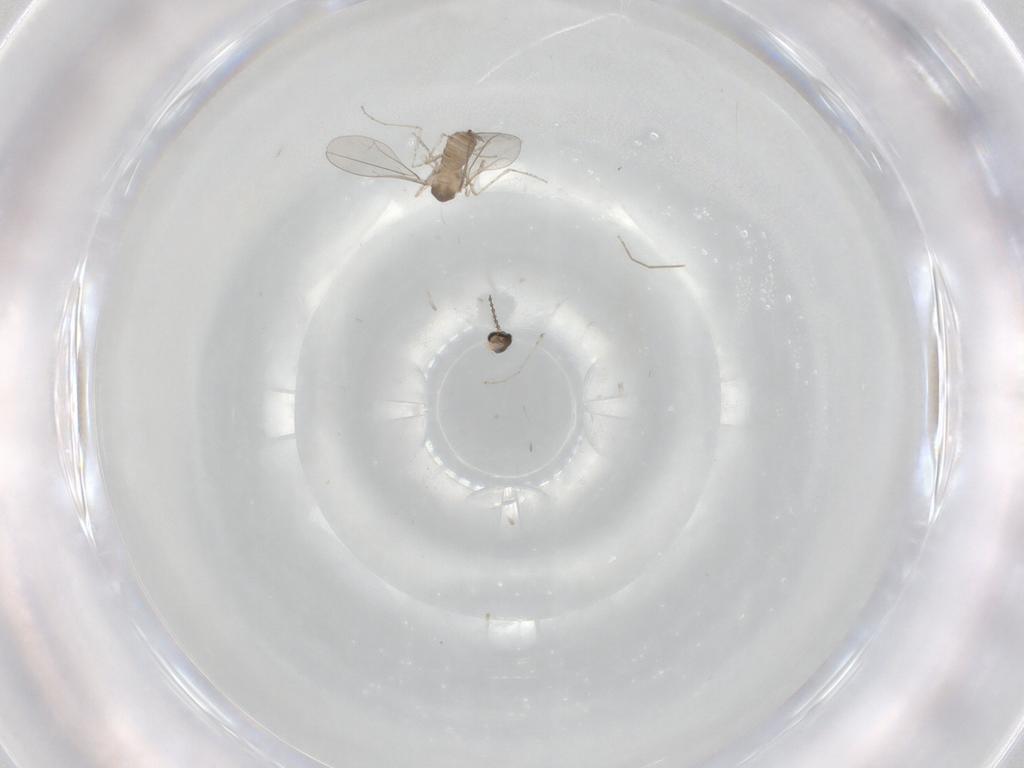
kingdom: Animalia
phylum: Arthropoda
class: Insecta
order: Diptera
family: Cecidomyiidae
